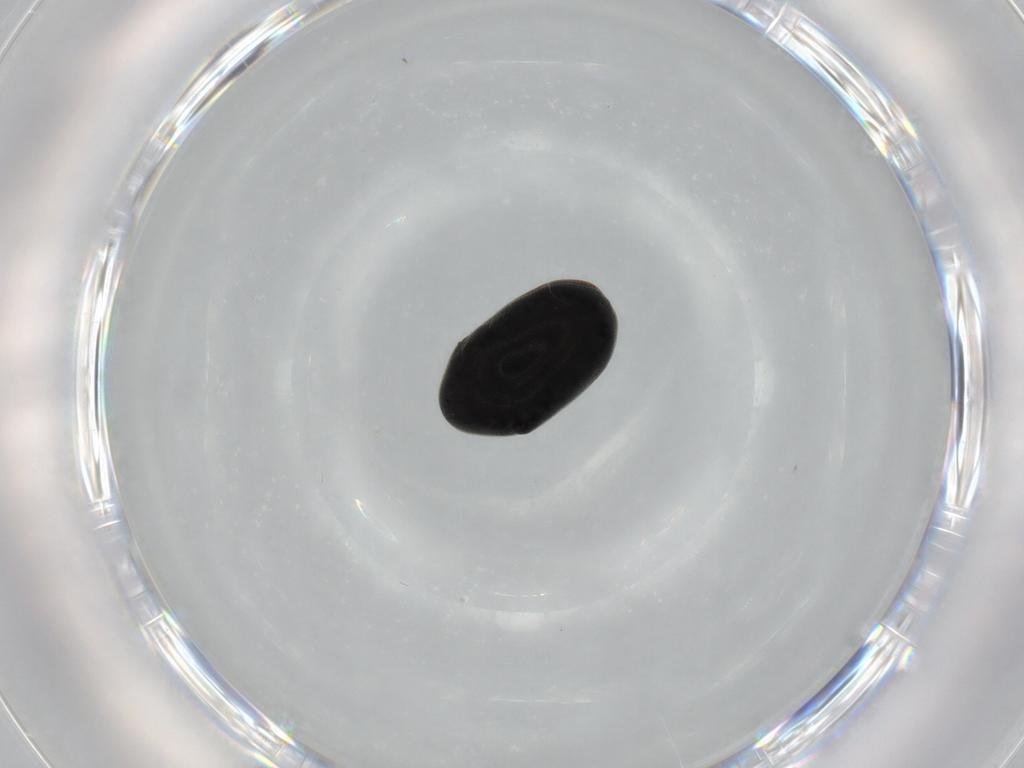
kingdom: Animalia
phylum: Arthropoda
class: Insecta
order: Coleoptera
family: Ptinidae
